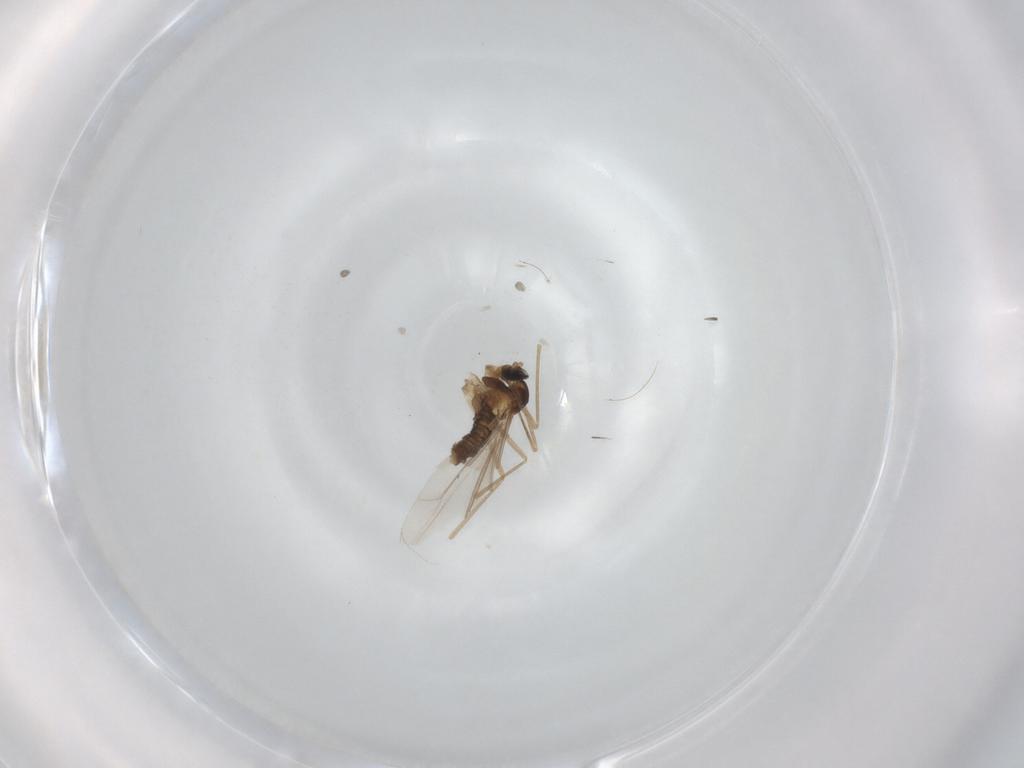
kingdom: Animalia
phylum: Arthropoda
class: Insecta
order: Diptera
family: Cecidomyiidae
